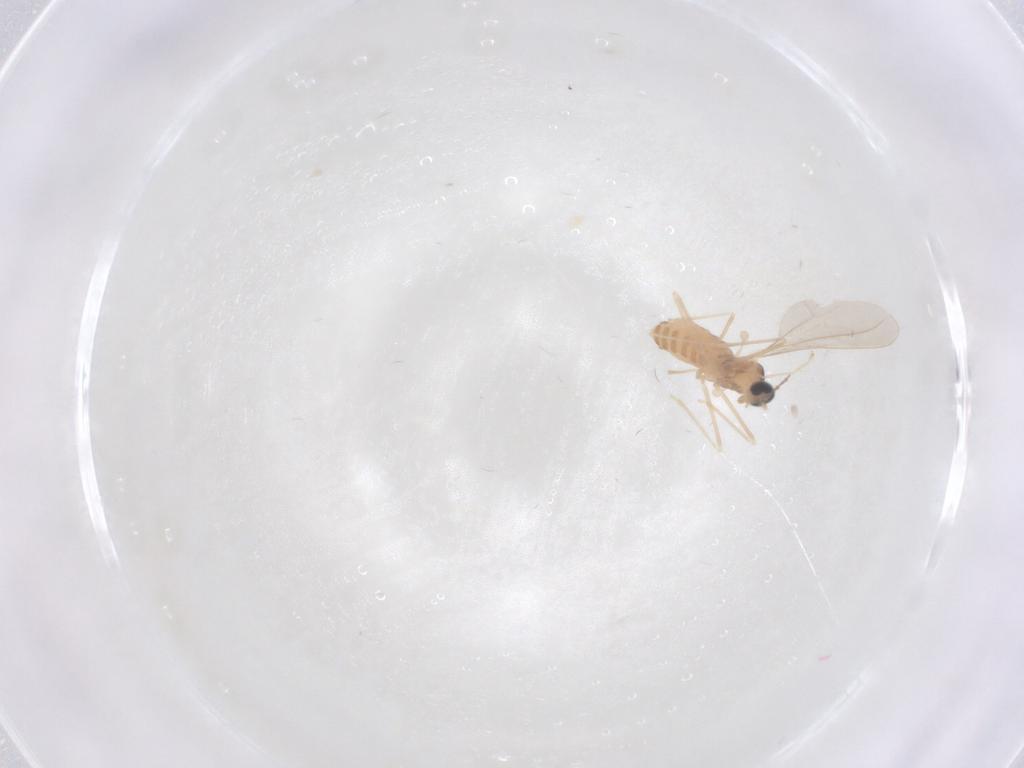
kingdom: Animalia
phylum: Arthropoda
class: Insecta
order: Diptera
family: Cecidomyiidae
